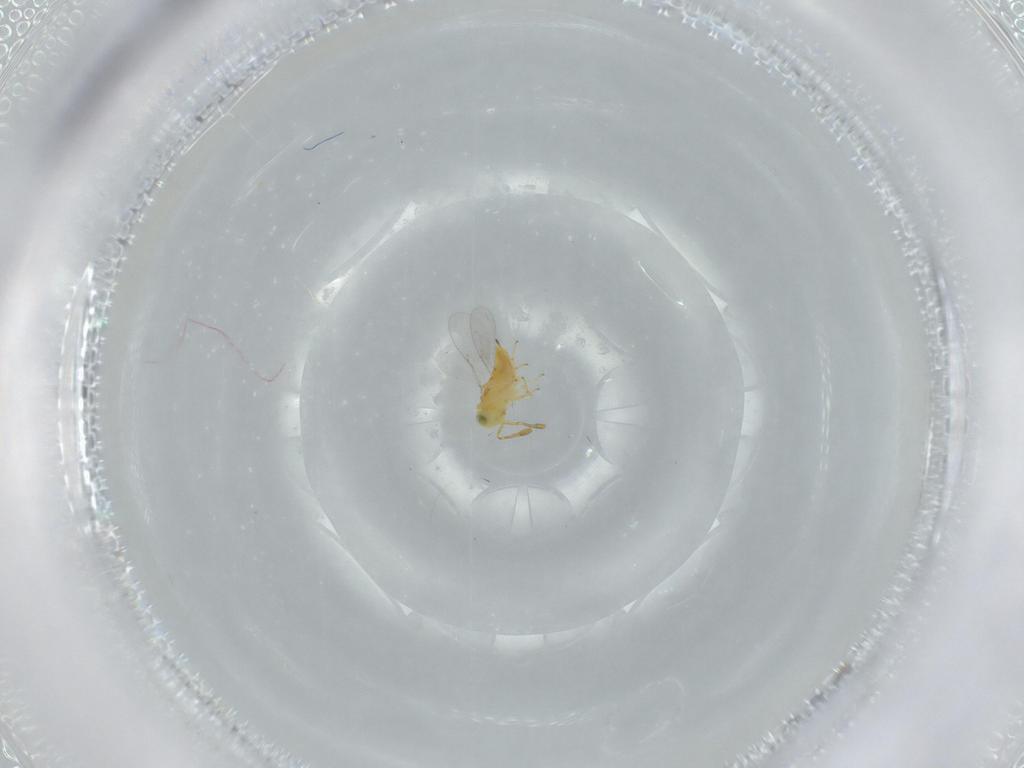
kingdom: Animalia
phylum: Arthropoda
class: Insecta
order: Hymenoptera
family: Encyrtidae
